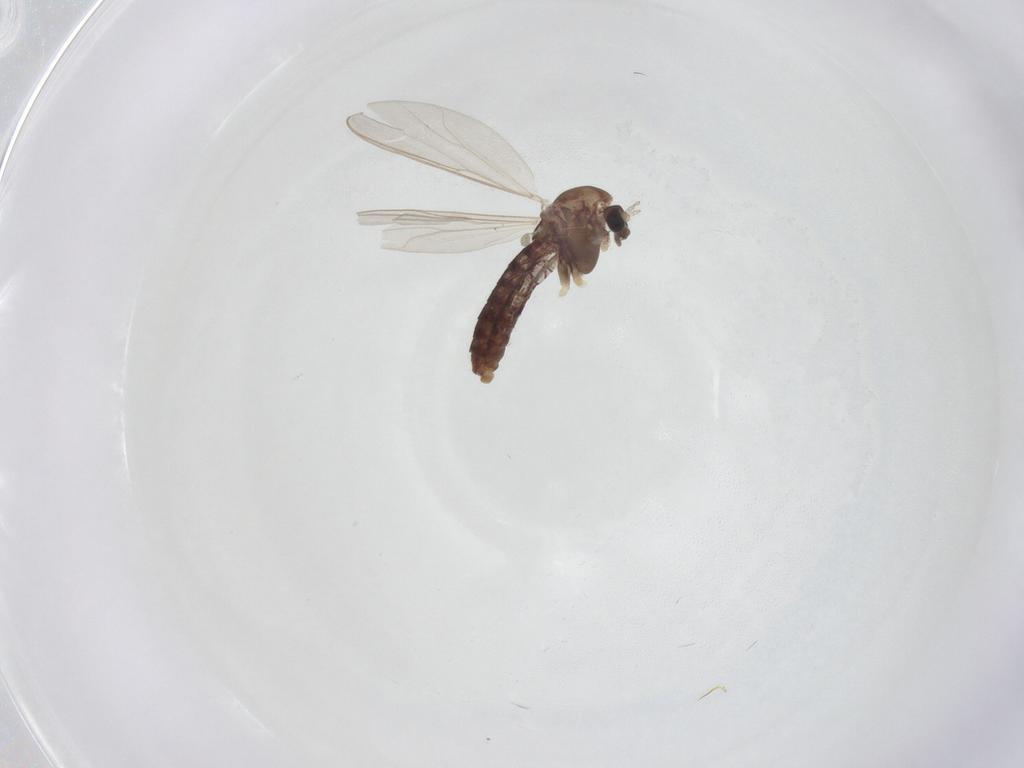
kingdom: Animalia
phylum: Arthropoda
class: Insecta
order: Diptera
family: Chironomidae
